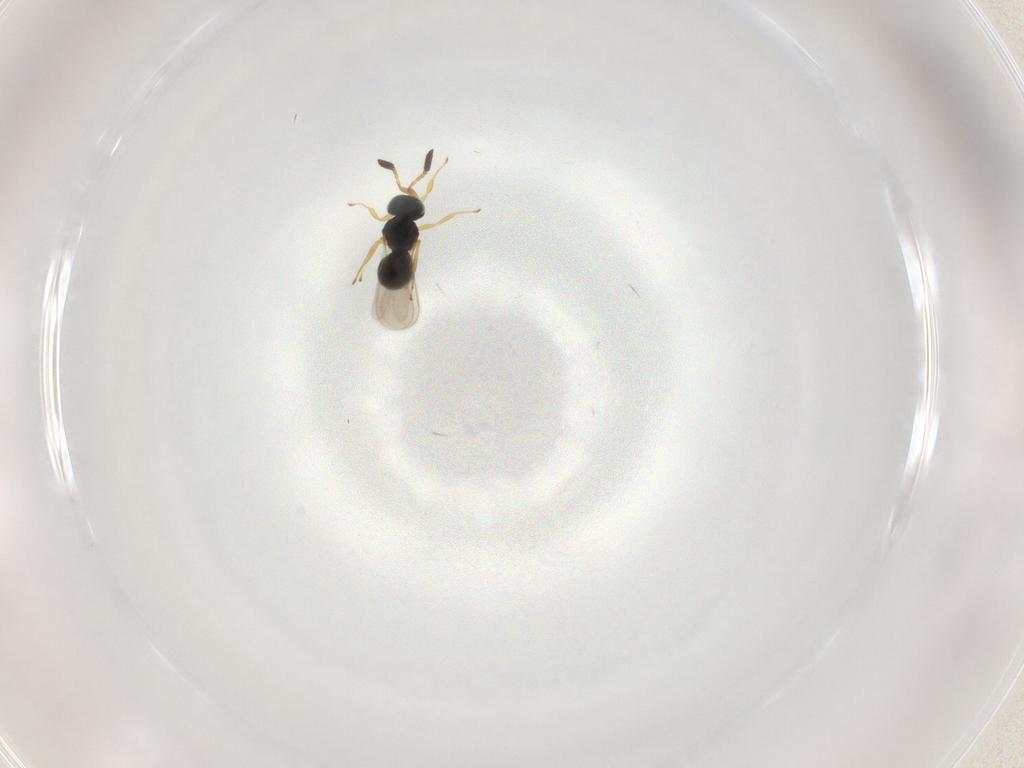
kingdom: Animalia
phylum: Arthropoda
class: Insecta
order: Hymenoptera
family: Scelionidae
